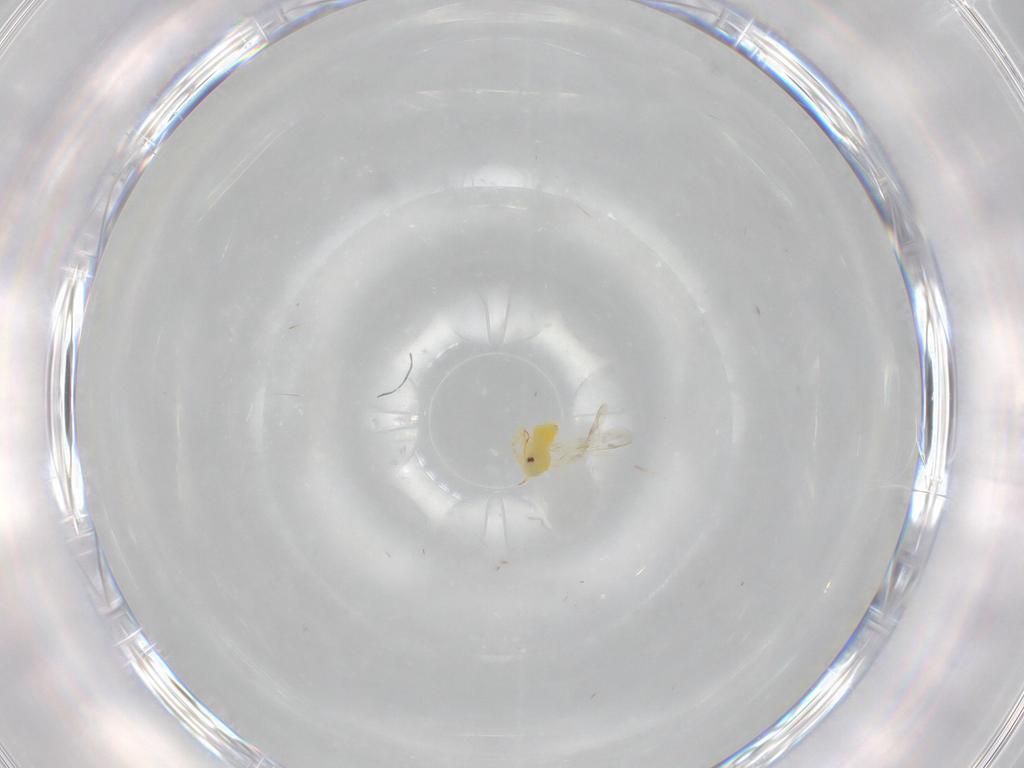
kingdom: Animalia
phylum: Arthropoda
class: Insecta
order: Hemiptera
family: Aleyrodidae
